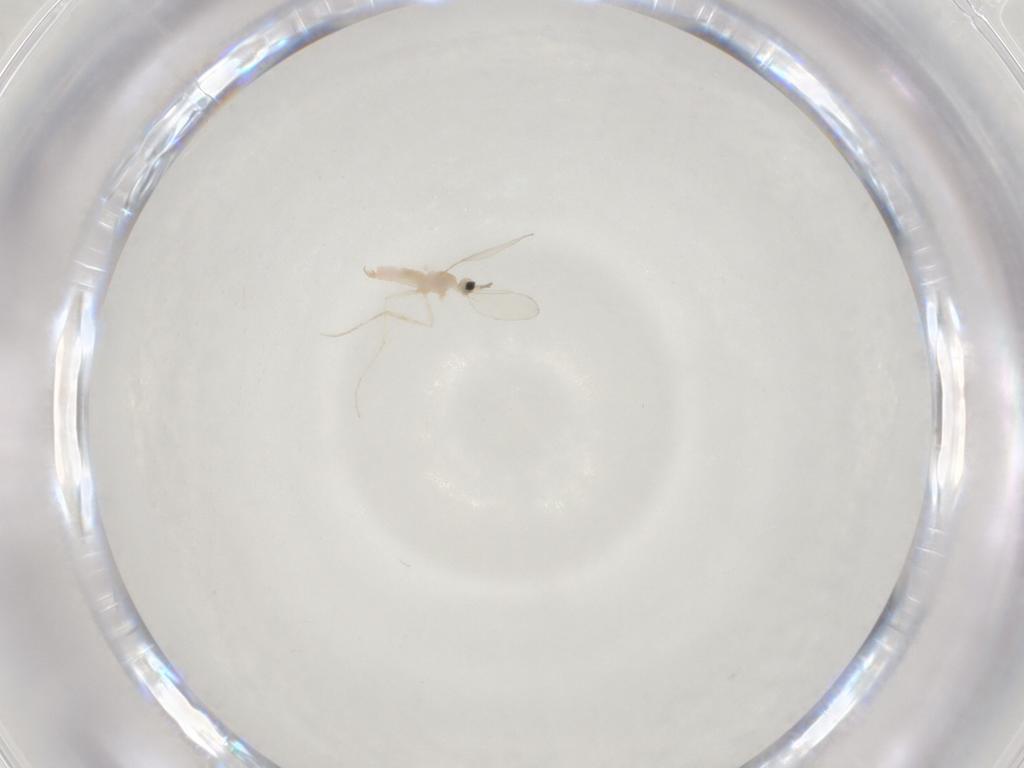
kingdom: Animalia
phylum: Arthropoda
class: Insecta
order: Diptera
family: Cecidomyiidae
